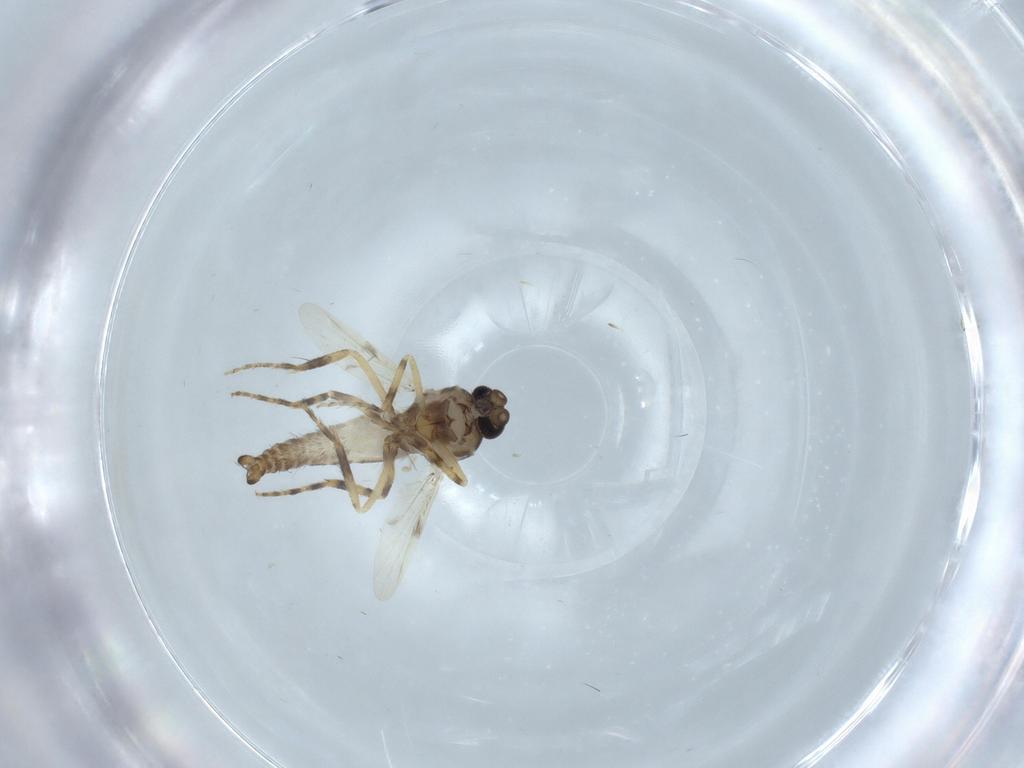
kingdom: Animalia
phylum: Arthropoda
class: Insecta
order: Diptera
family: Ceratopogonidae
